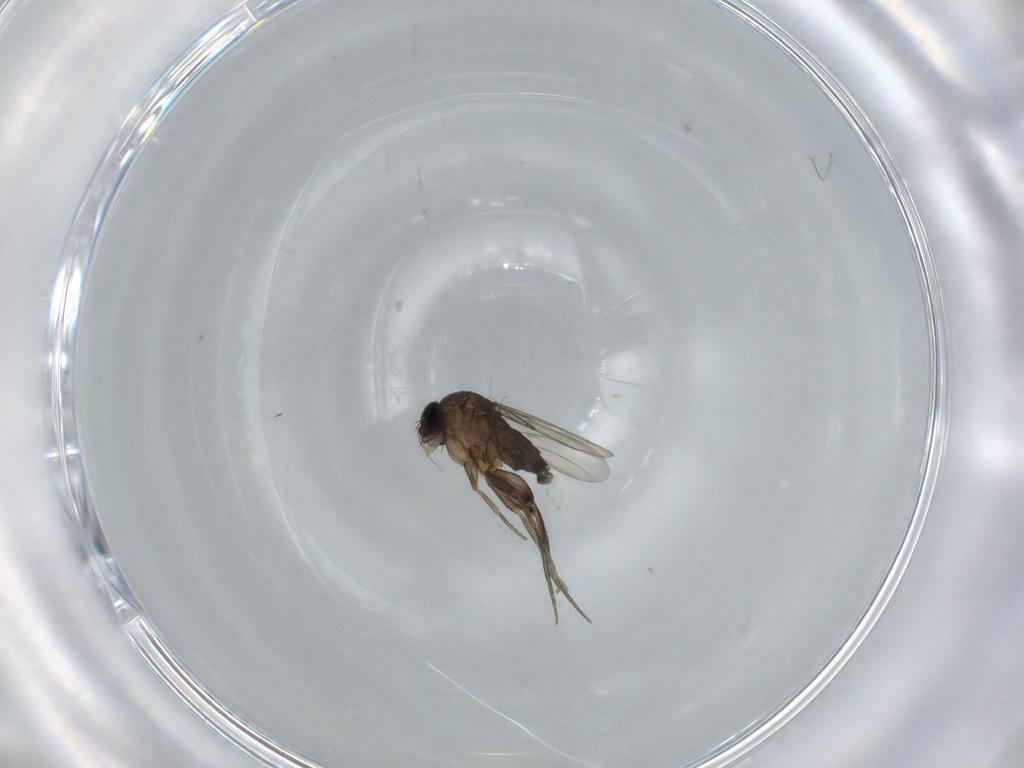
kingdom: Animalia
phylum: Arthropoda
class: Insecta
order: Diptera
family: Phoridae
